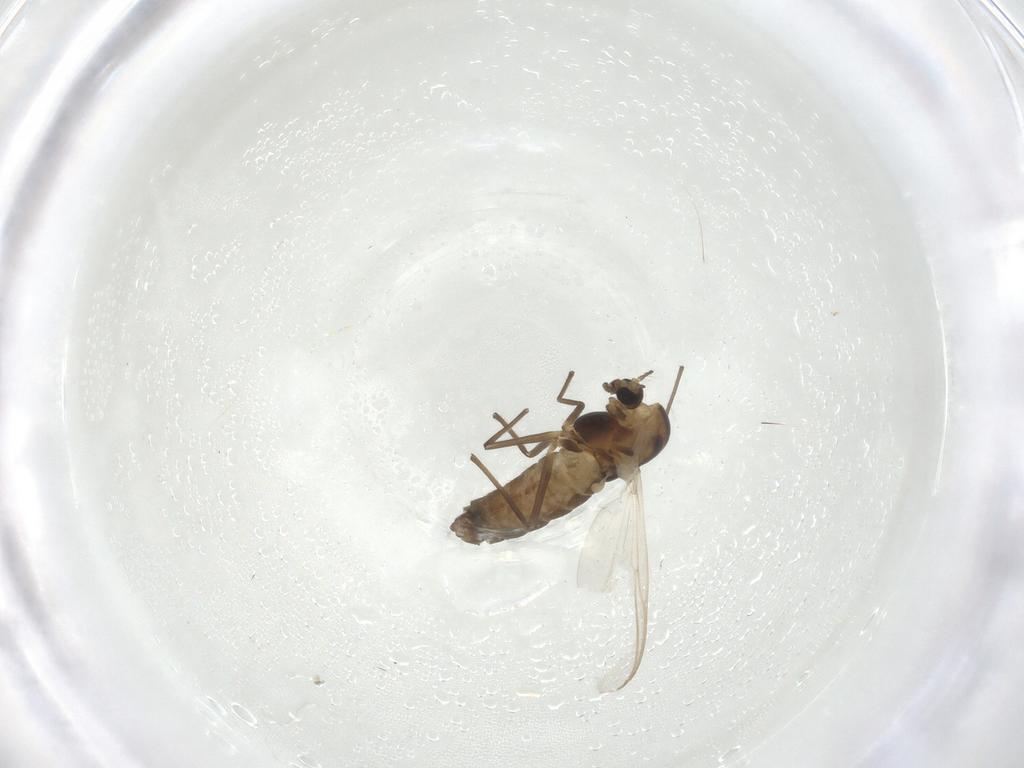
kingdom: Animalia
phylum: Arthropoda
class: Insecta
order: Diptera
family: Chironomidae
